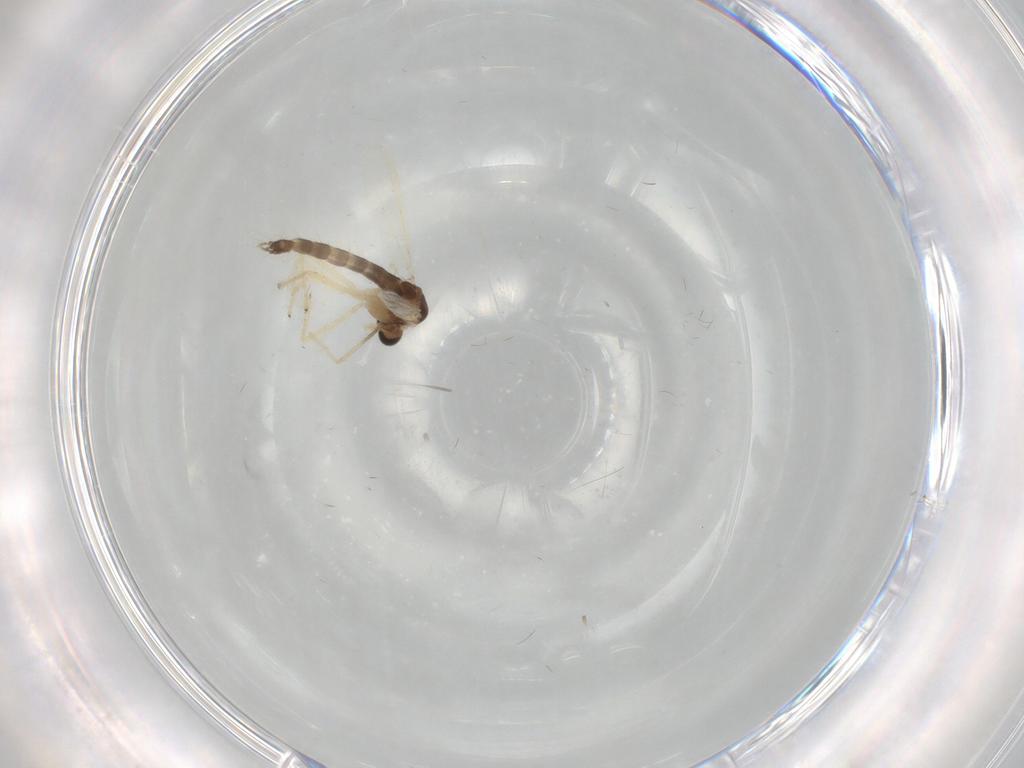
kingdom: Animalia
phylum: Arthropoda
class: Insecta
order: Diptera
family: Chironomidae
